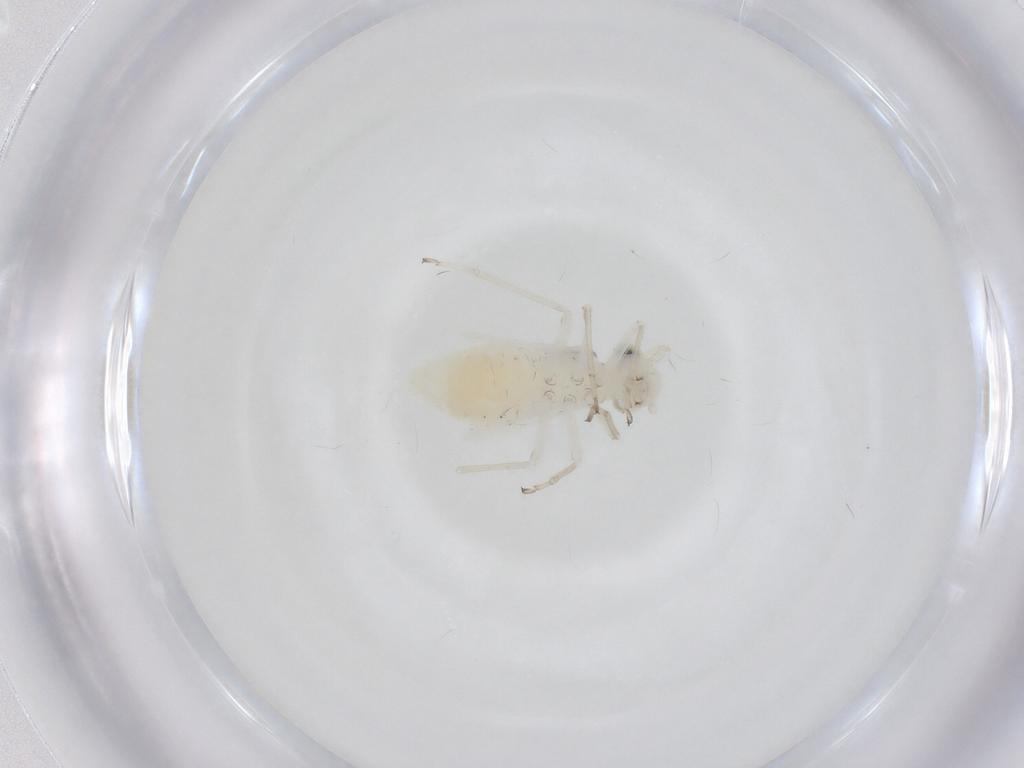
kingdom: Animalia
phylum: Arthropoda
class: Insecta
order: Psocodea
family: Caeciliusidae
